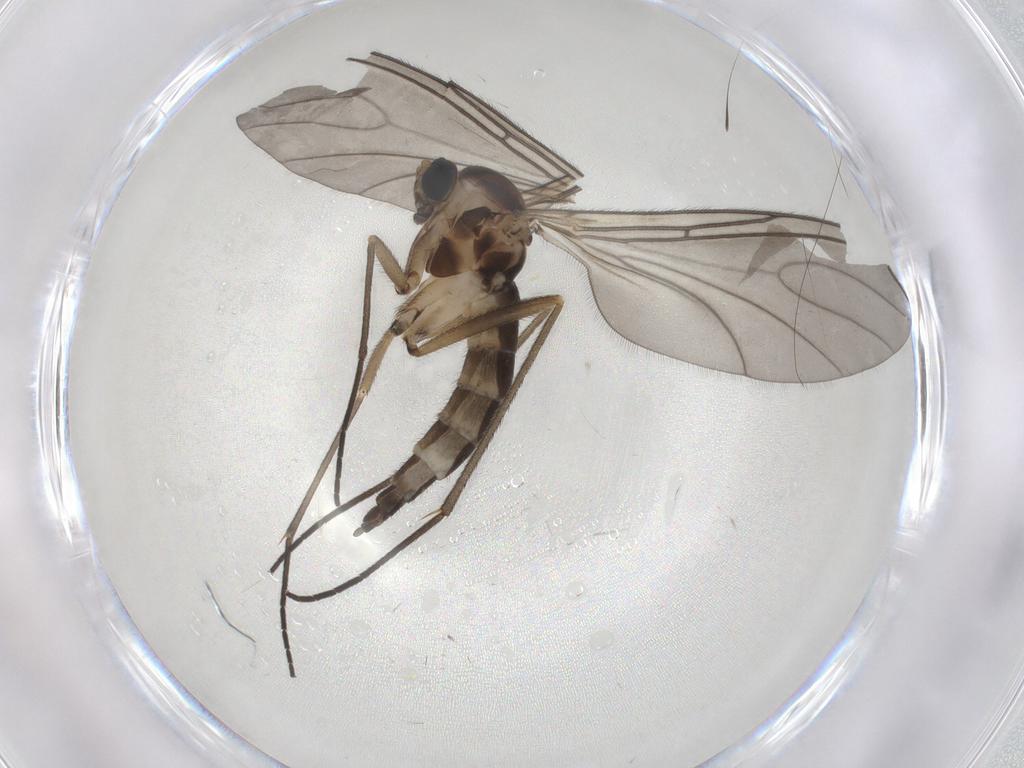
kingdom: Animalia
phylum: Arthropoda
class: Insecta
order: Diptera
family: Sciaridae
